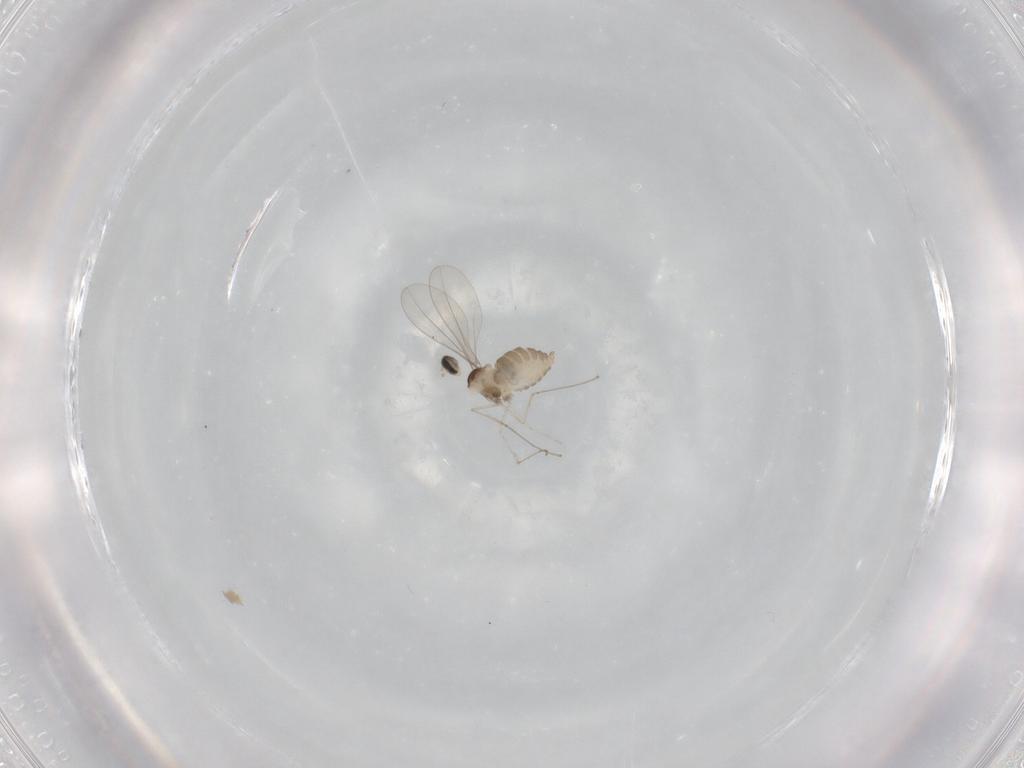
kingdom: Animalia
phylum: Arthropoda
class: Insecta
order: Diptera
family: Cecidomyiidae
